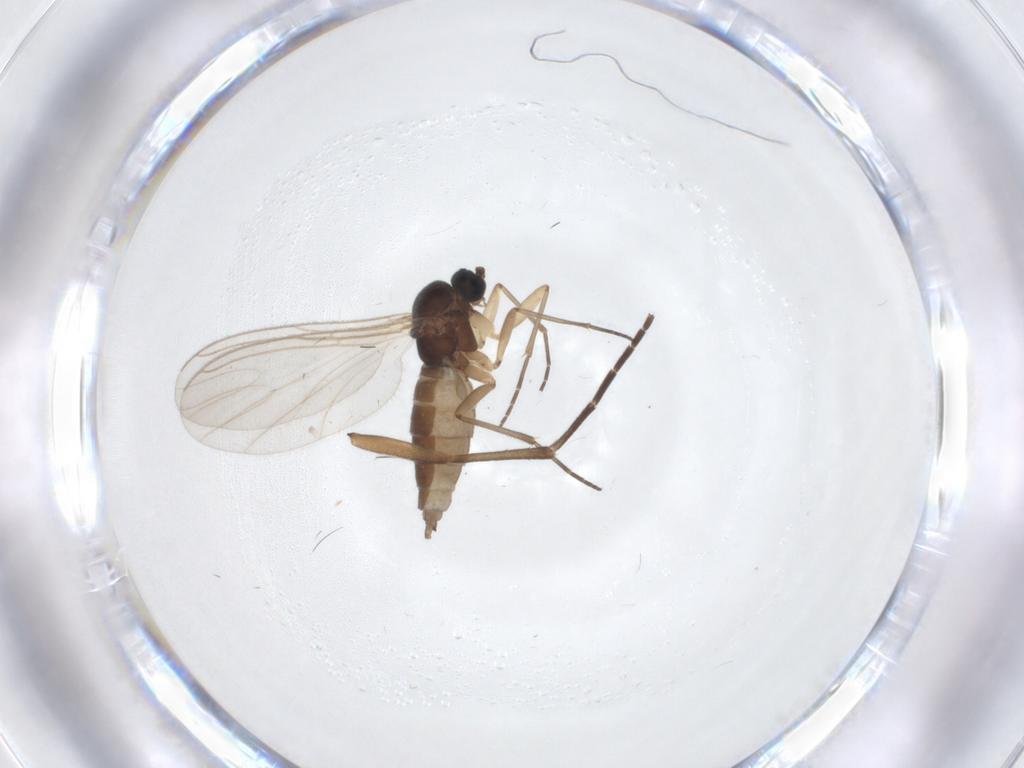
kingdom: Animalia
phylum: Arthropoda
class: Insecta
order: Diptera
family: Sciaridae
